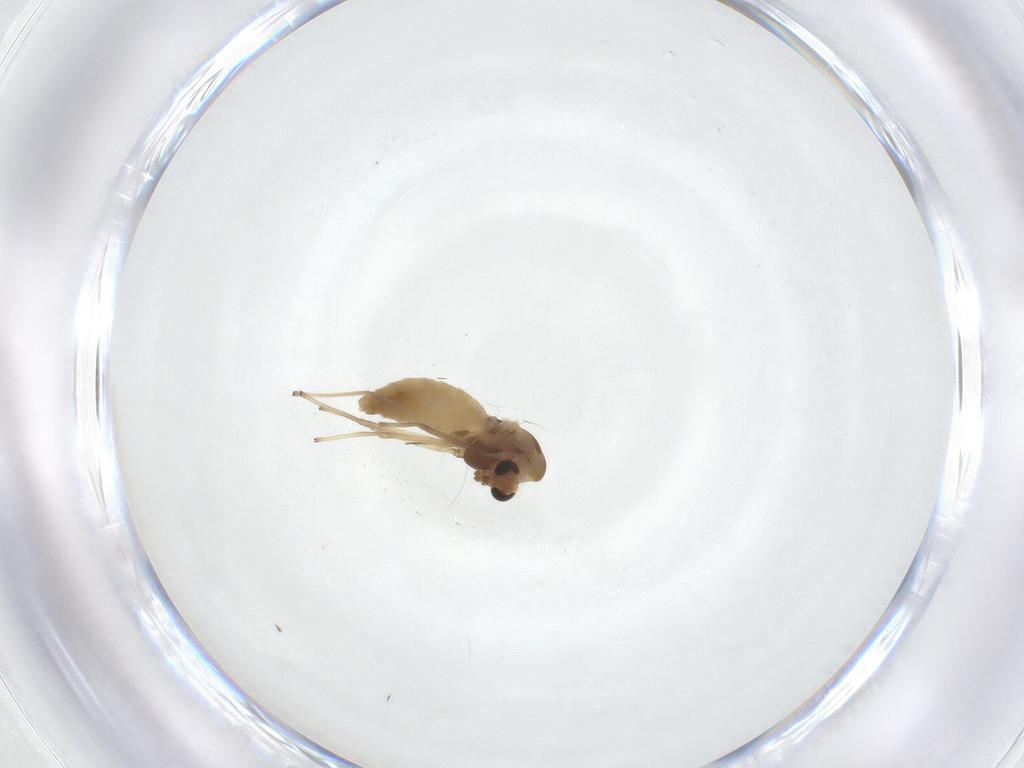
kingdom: Animalia
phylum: Arthropoda
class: Insecta
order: Diptera
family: Chironomidae
